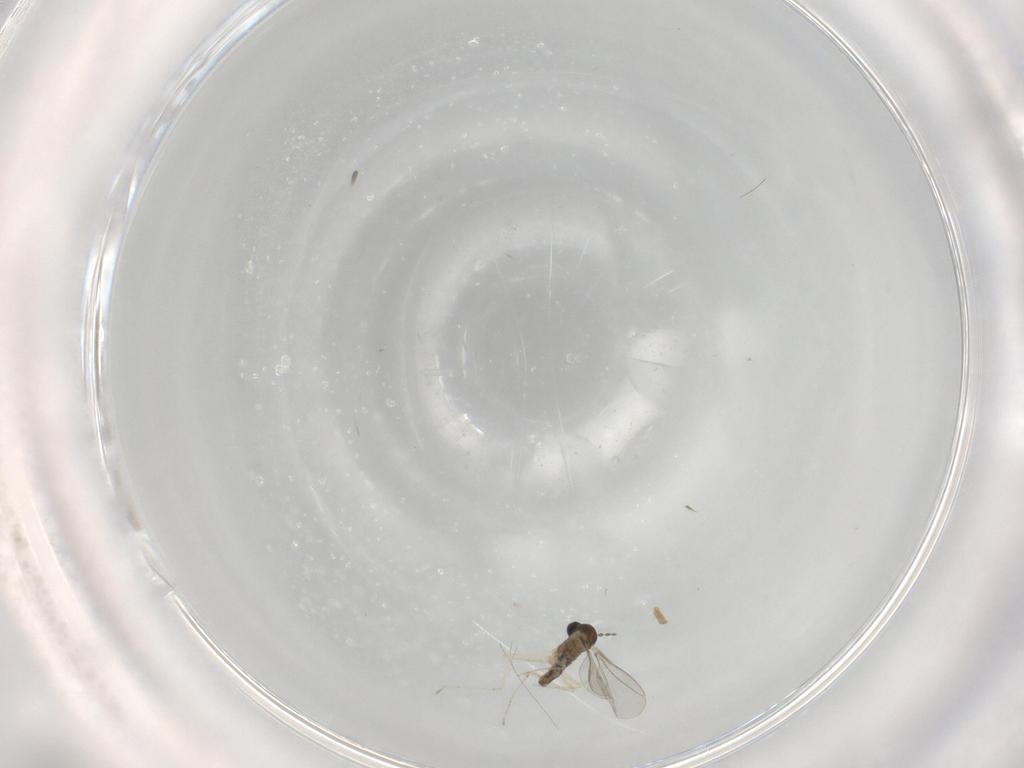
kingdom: Animalia
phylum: Arthropoda
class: Insecta
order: Diptera
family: Cecidomyiidae
